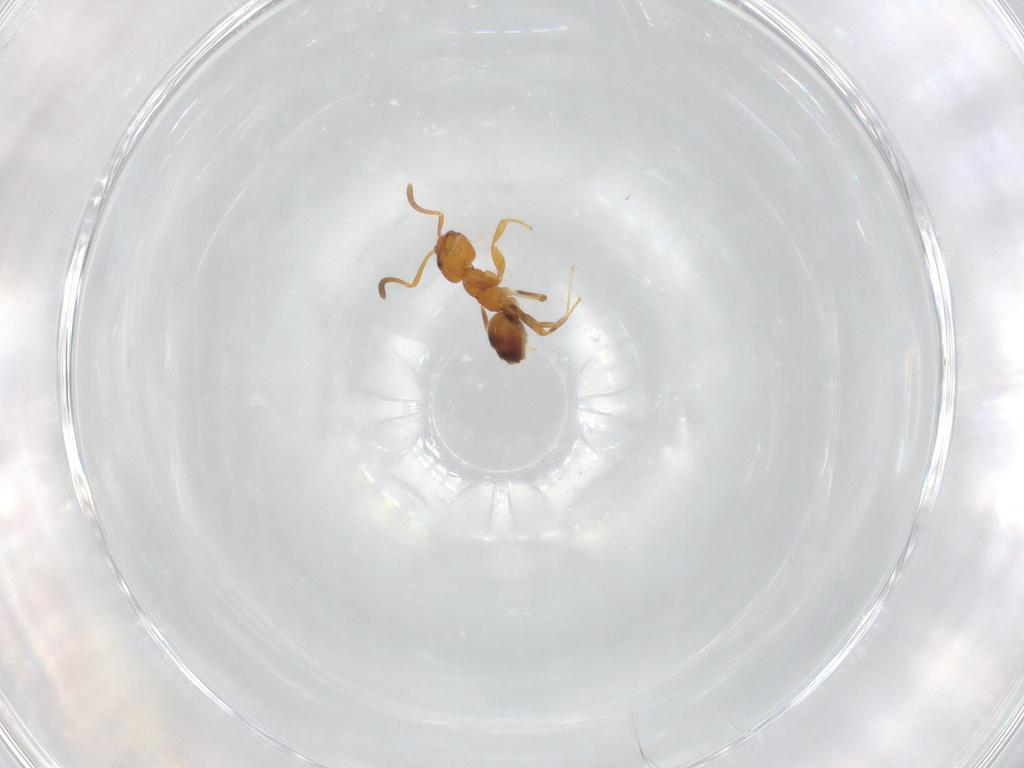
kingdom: Animalia
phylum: Arthropoda
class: Insecta
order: Hymenoptera
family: Formicidae
